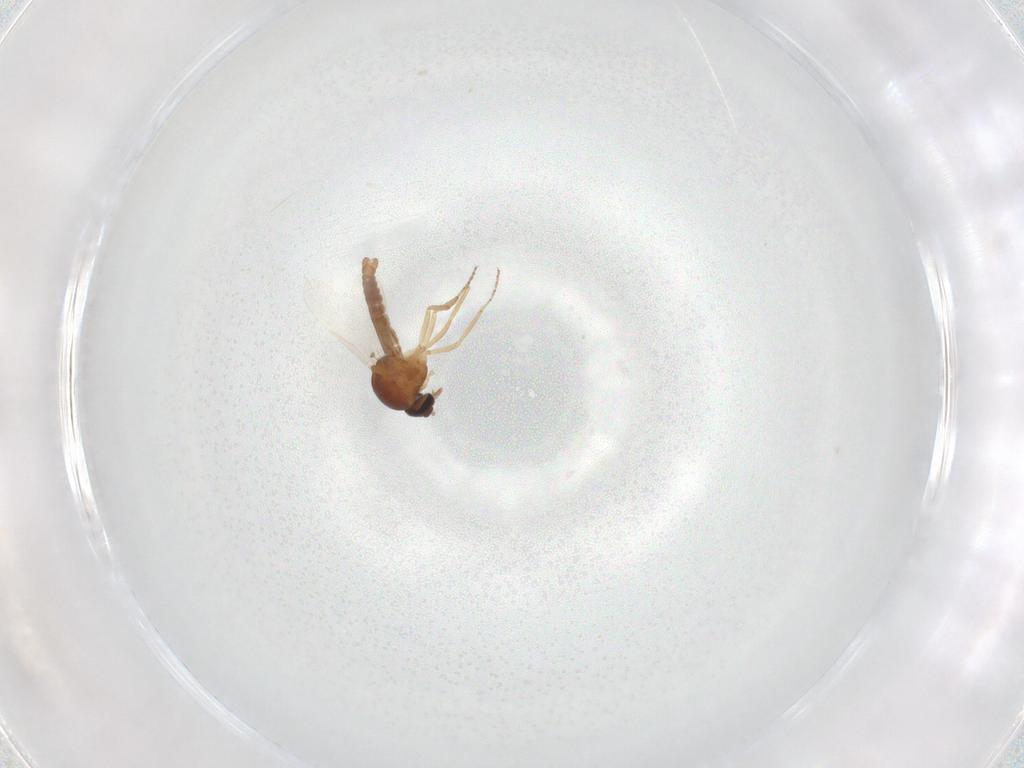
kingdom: Animalia
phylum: Arthropoda
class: Insecta
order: Diptera
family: Ceratopogonidae
